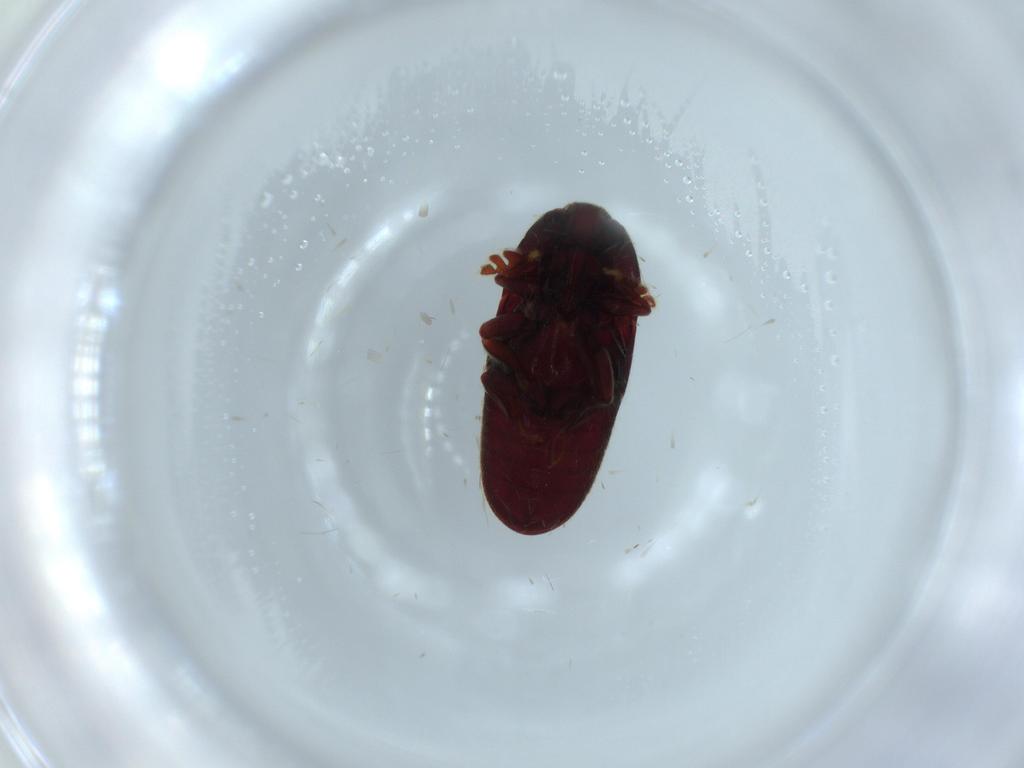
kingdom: Animalia
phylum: Arthropoda
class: Insecta
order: Coleoptera
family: Throscidae
